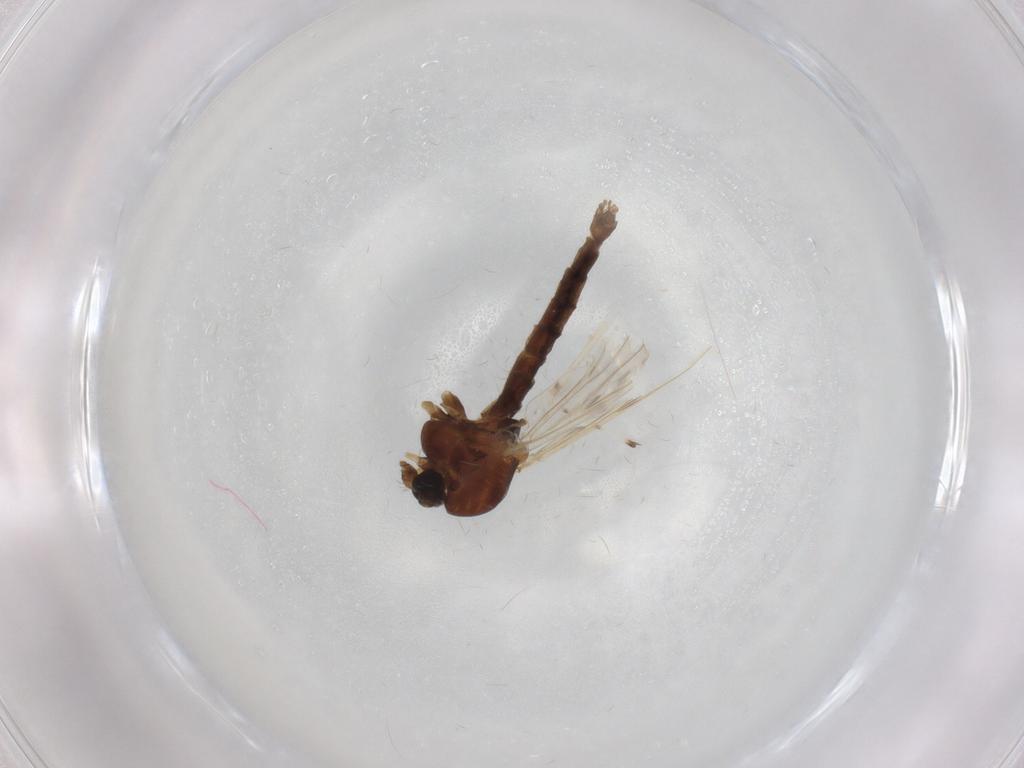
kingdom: Animalia
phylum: Arthropoda
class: Insecta
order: Diptera
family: Chironomidae
